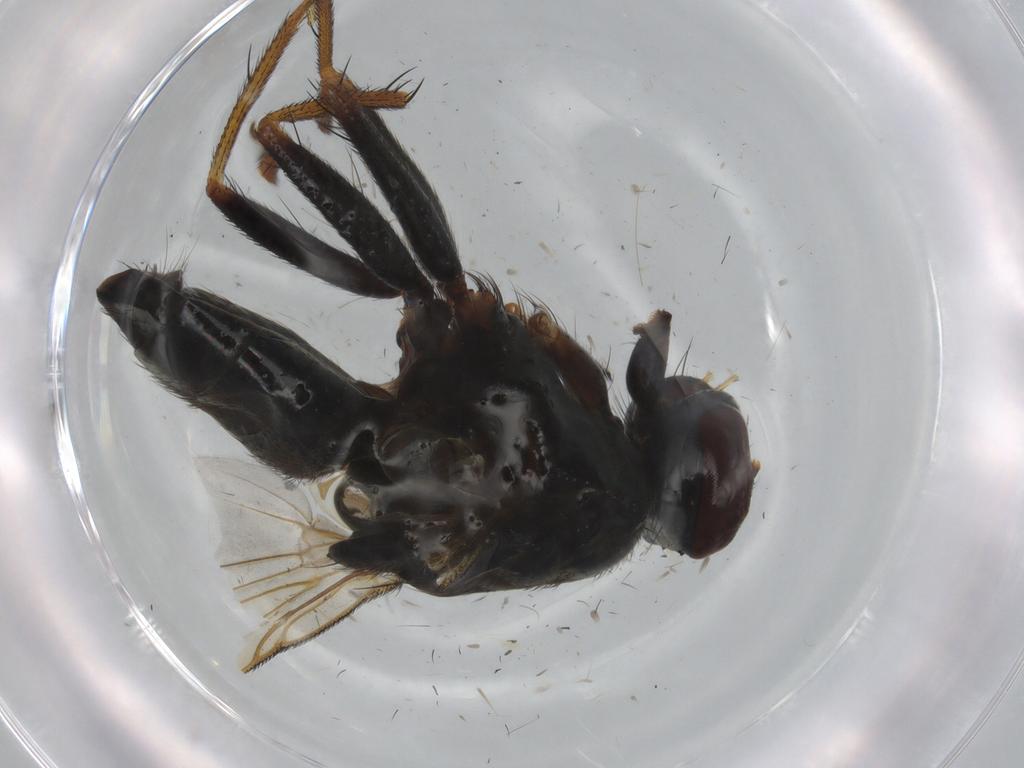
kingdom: Animalia
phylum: Arthropoda
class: Insecta
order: Diptera
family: Muscidae
